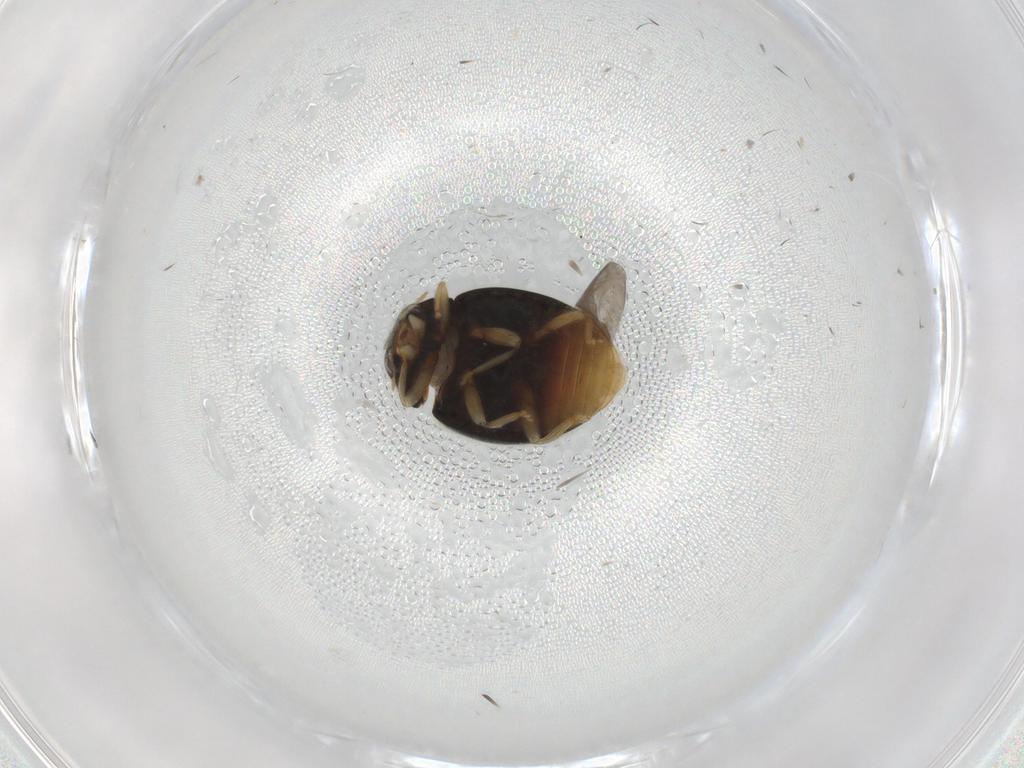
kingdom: Animalia
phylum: Arthropoda
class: Insecta
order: Coleoptera
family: Coccinellidae
